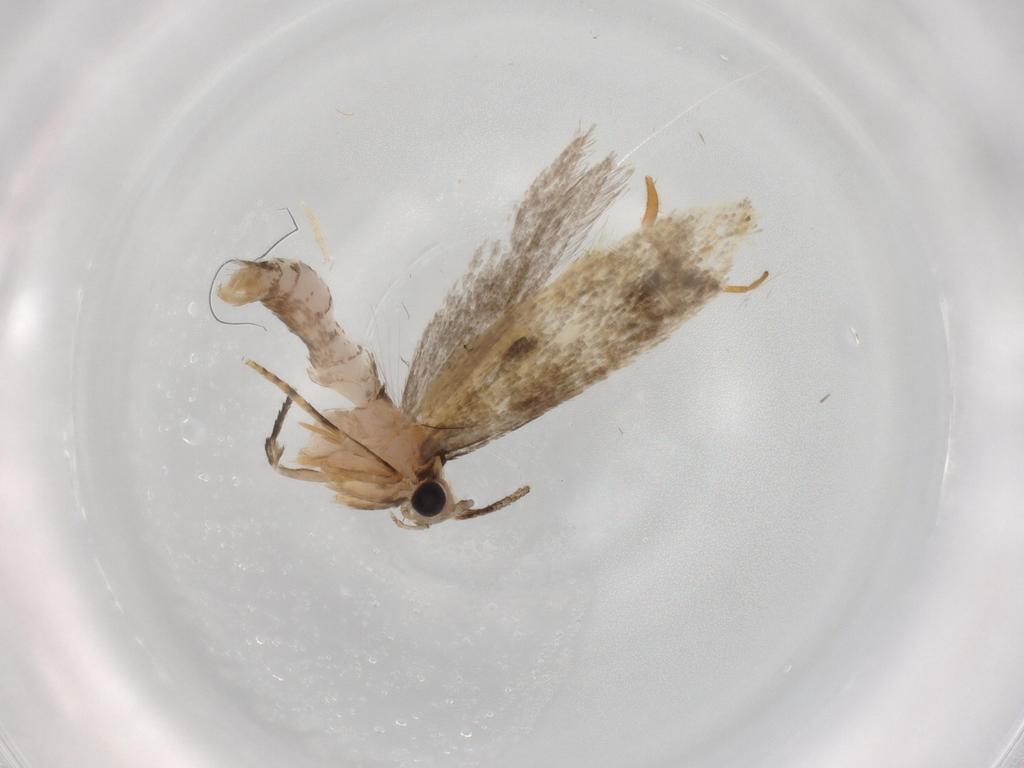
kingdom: Animalia
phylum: Arthropoda
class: Insecta
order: Lepidoptera
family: Tineidae
